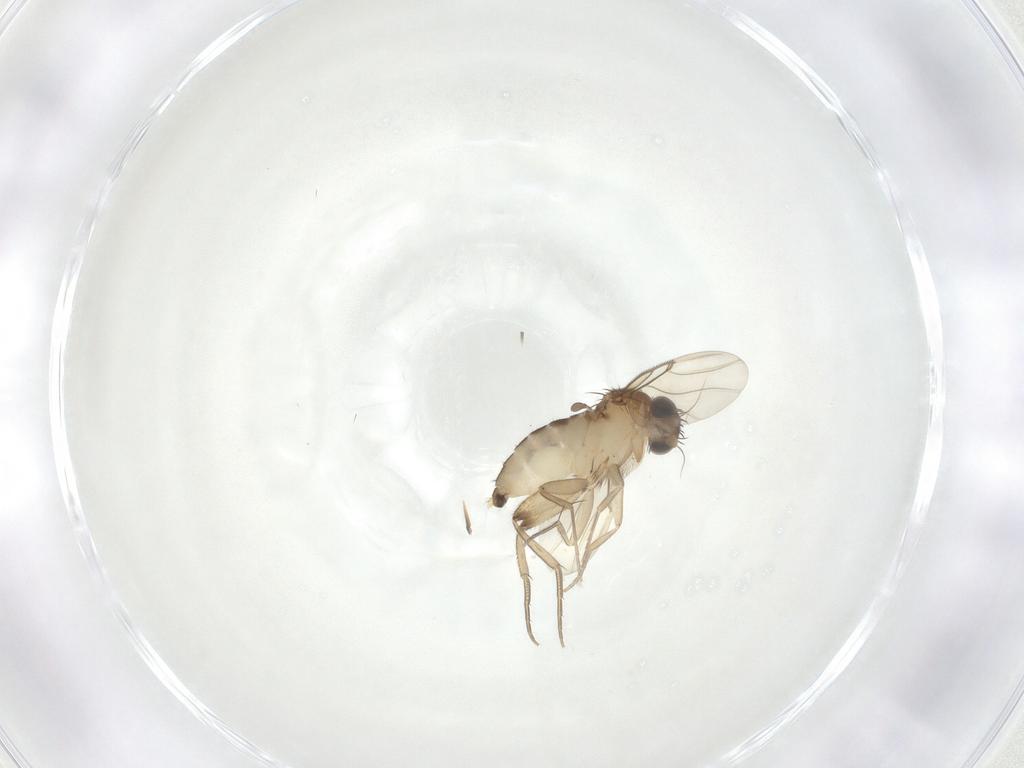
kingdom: Animalia
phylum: Arthropoda
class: Insecta
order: Diptera
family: Phoridae
